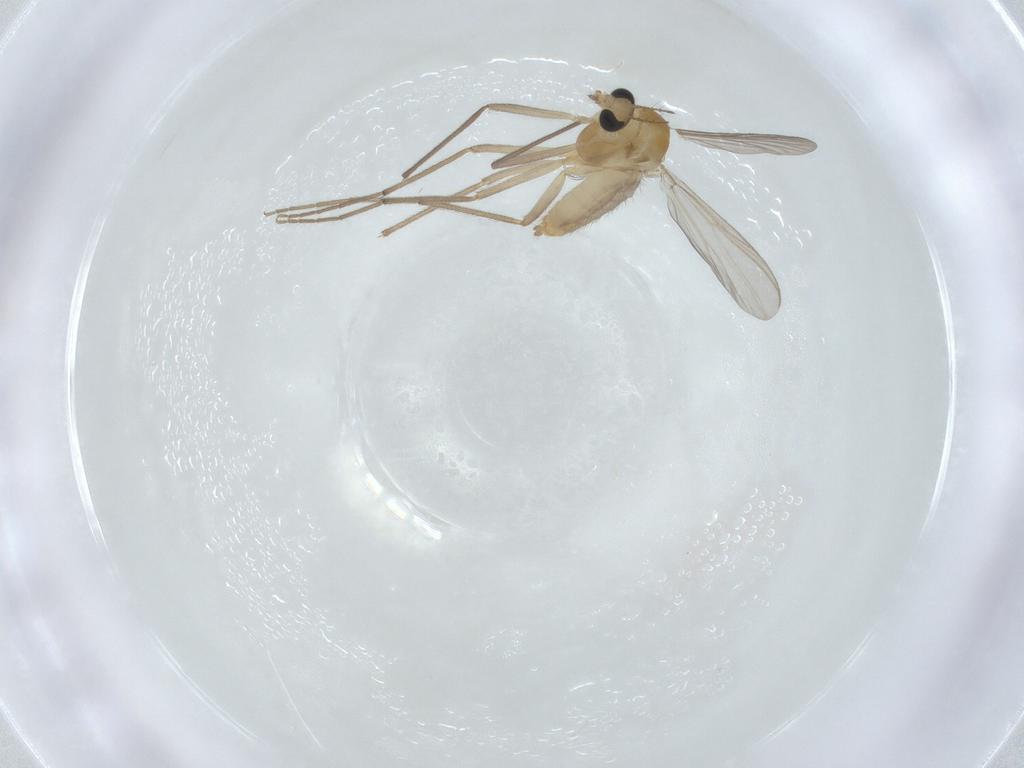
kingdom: Animalia
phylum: Arthropoda
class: Insecta
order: Diptera
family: Chironomidae
